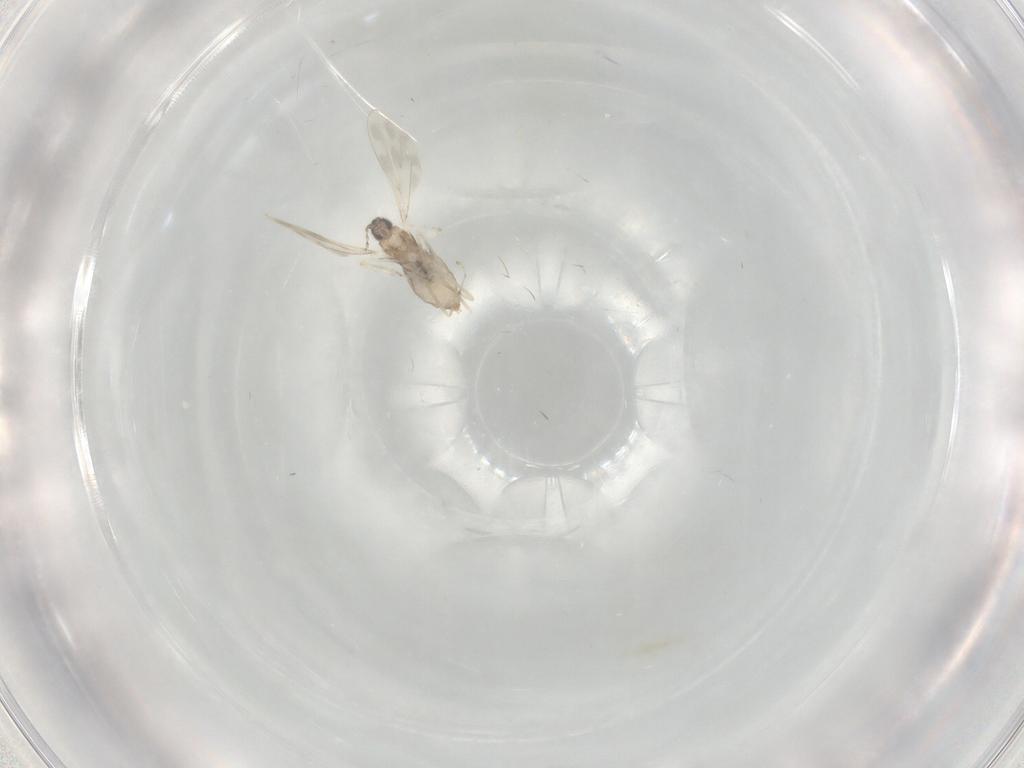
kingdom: Animalia
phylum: Arthropoda
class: Insecta
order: Diptera
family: Cecidomyiidae
